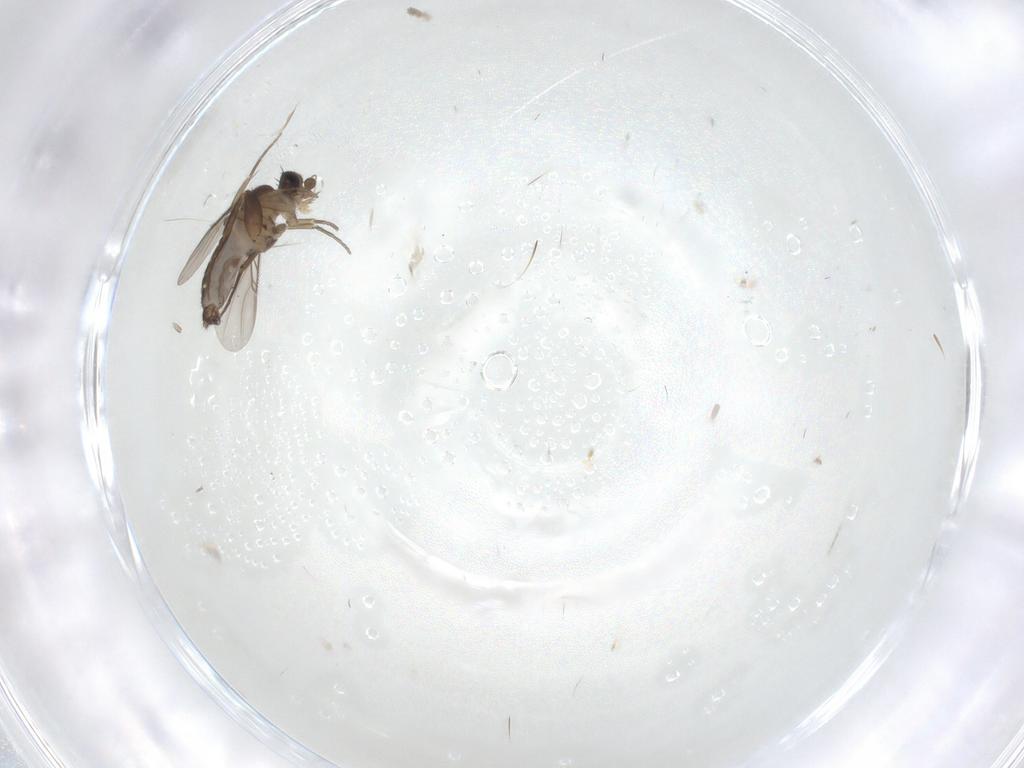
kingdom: Animalia
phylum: Arthropoda
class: Insecta
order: Diptera
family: Phoridae
